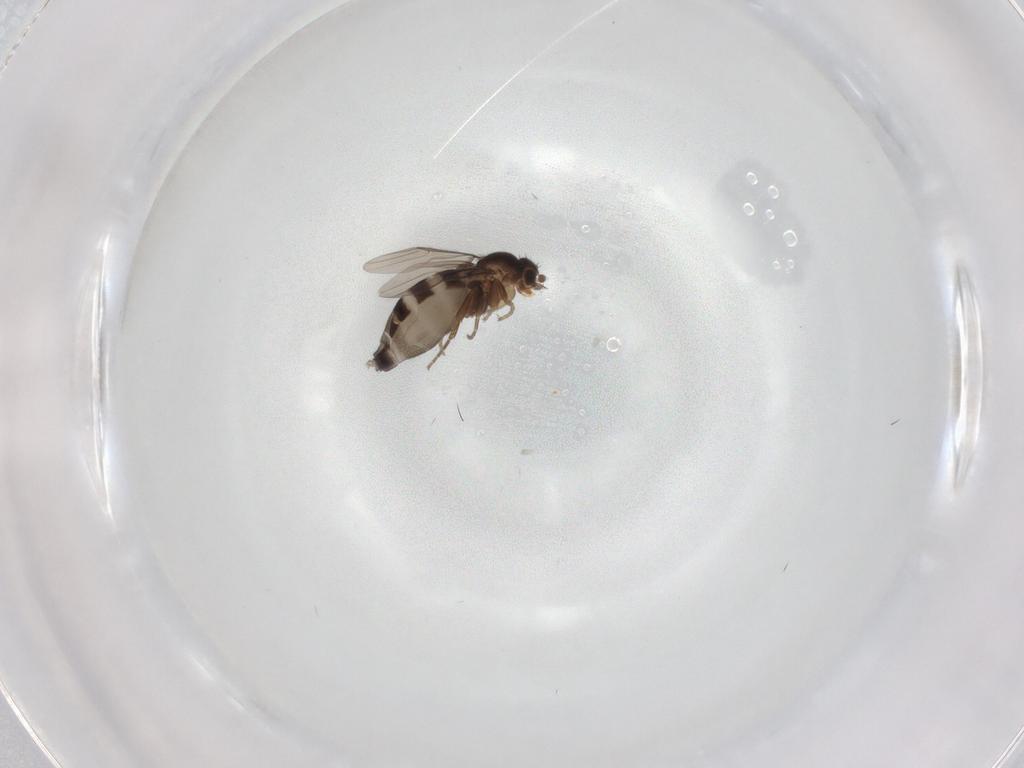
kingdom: Animalia
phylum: Arthropoda
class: Insecta
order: Diptera
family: Phoridae
